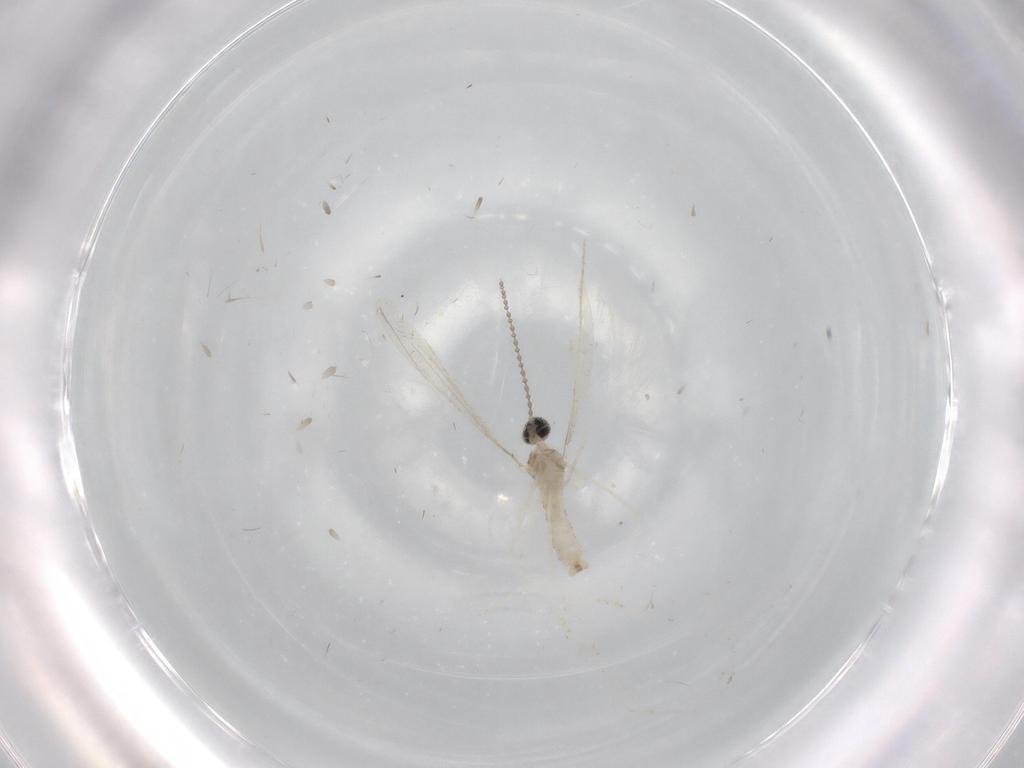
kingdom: Animalia
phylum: Arthropoda
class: Insecta
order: Diptera
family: Cecidomyiidae
